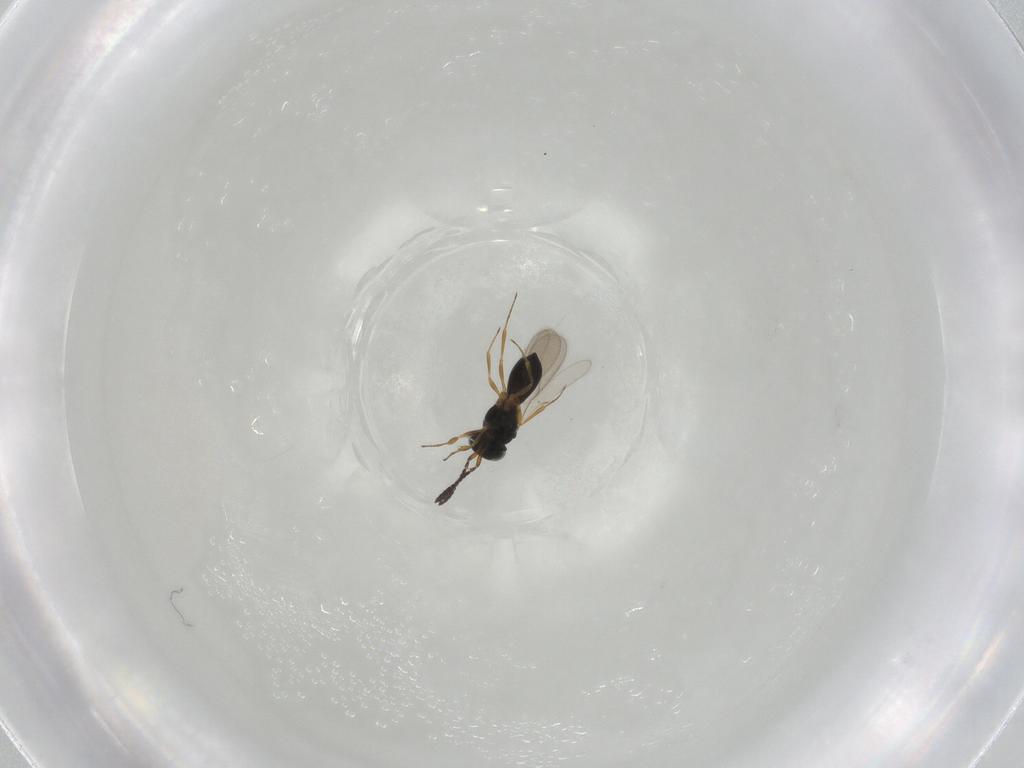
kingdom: Animalia
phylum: Arthropoda
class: Insecta
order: Hymenoptera
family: Scelionidae
